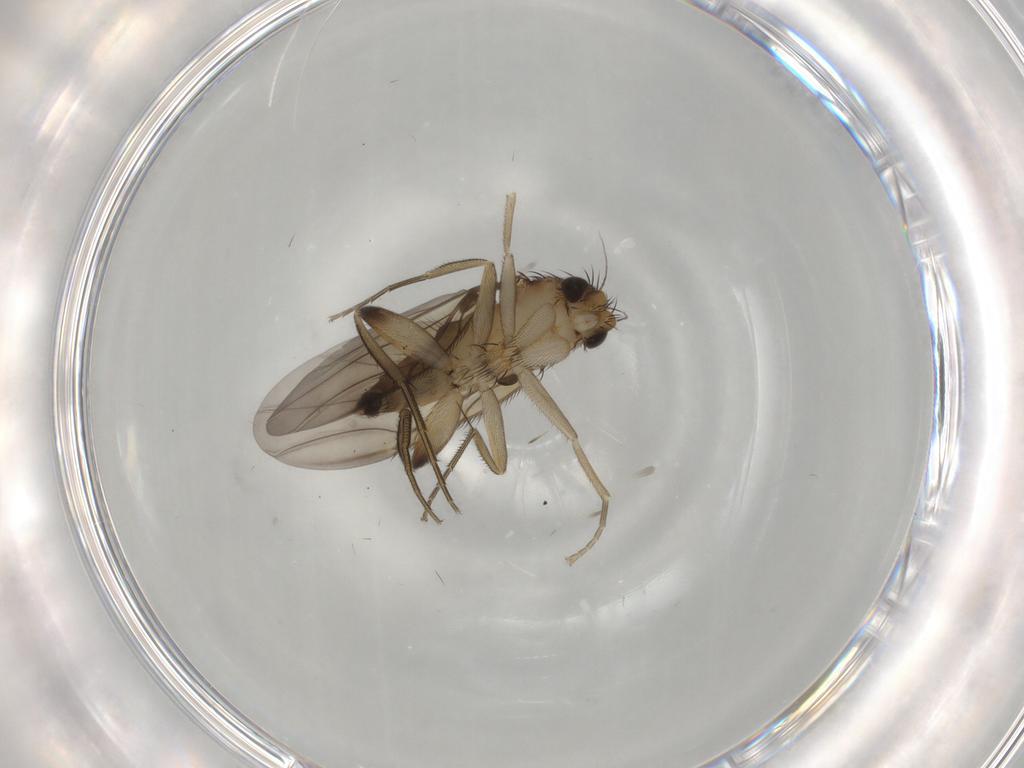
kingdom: Animalia
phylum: Arthropoda
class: Insecta
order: Diptera
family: Phoridae
